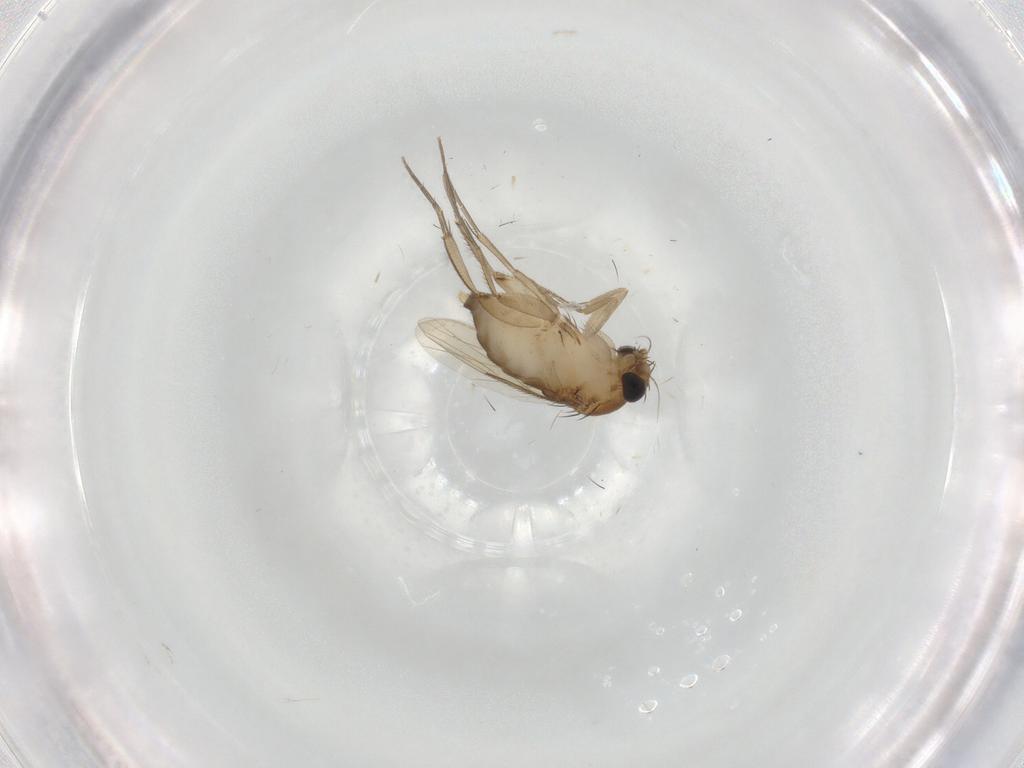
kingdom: Animalia
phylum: Arthropoda
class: Insecta
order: Diptera
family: Phoridae
